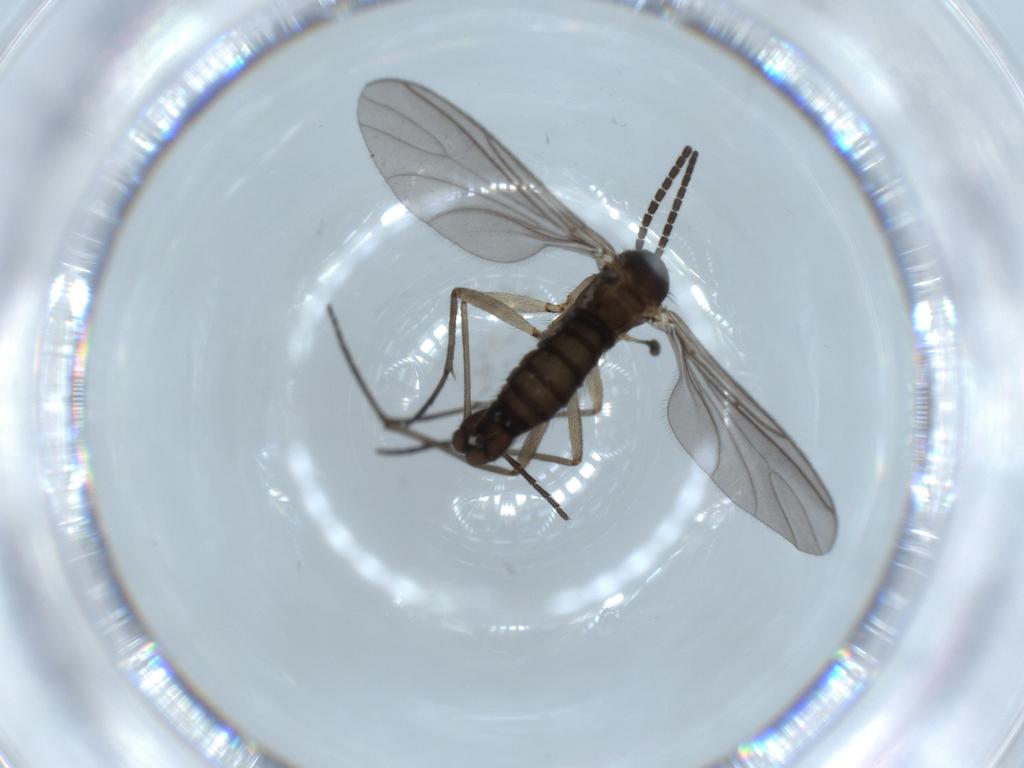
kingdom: Animalia
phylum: Arthropoda
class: Insecta
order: Diptera
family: Sciaridae
